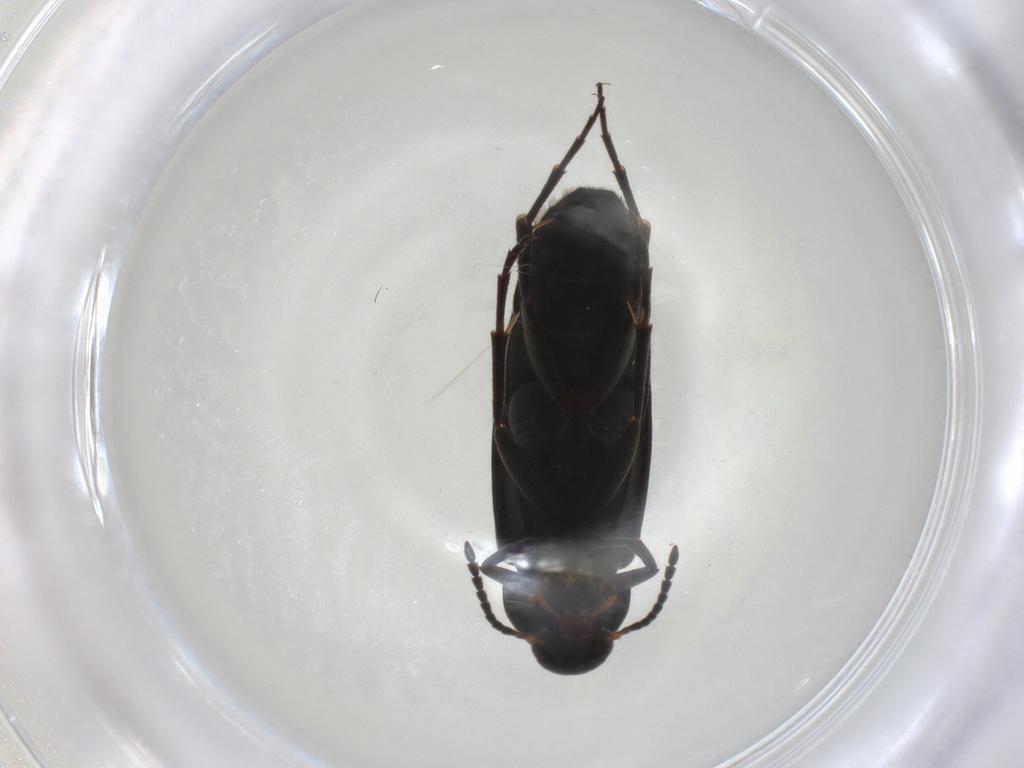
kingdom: Animalia
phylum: Arthropoda
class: Insecta
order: Coleoptera
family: Scraptiidae
